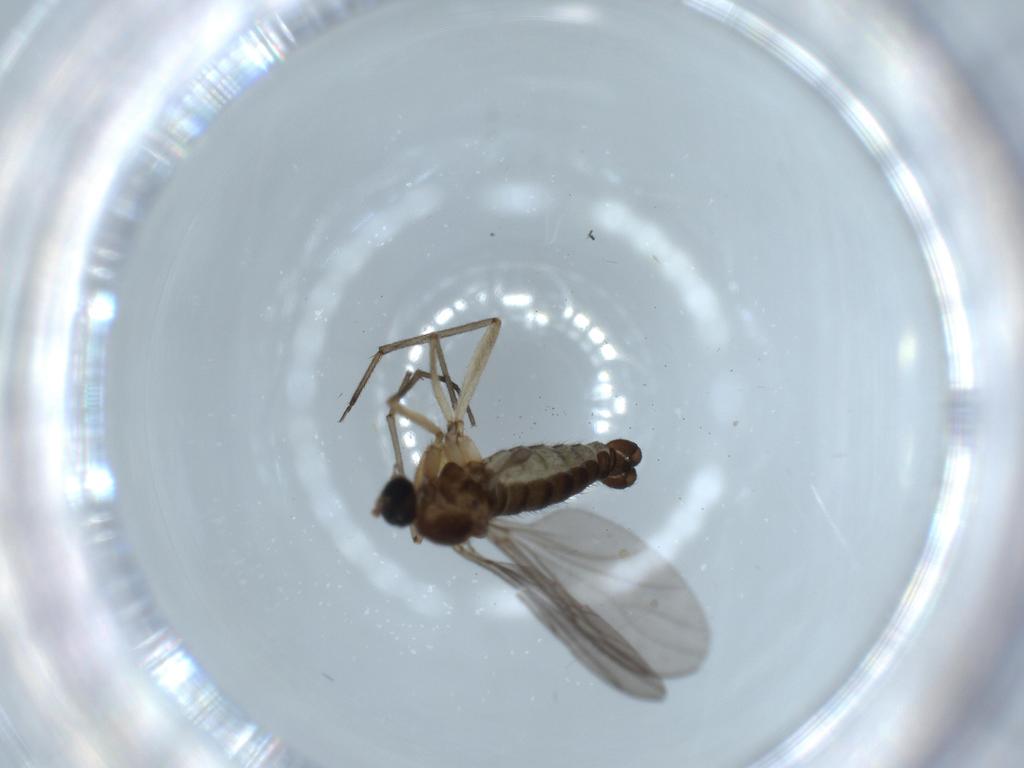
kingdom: Animalia
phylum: Arthropoda
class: Insecta
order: Diptera
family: Sciaridae
